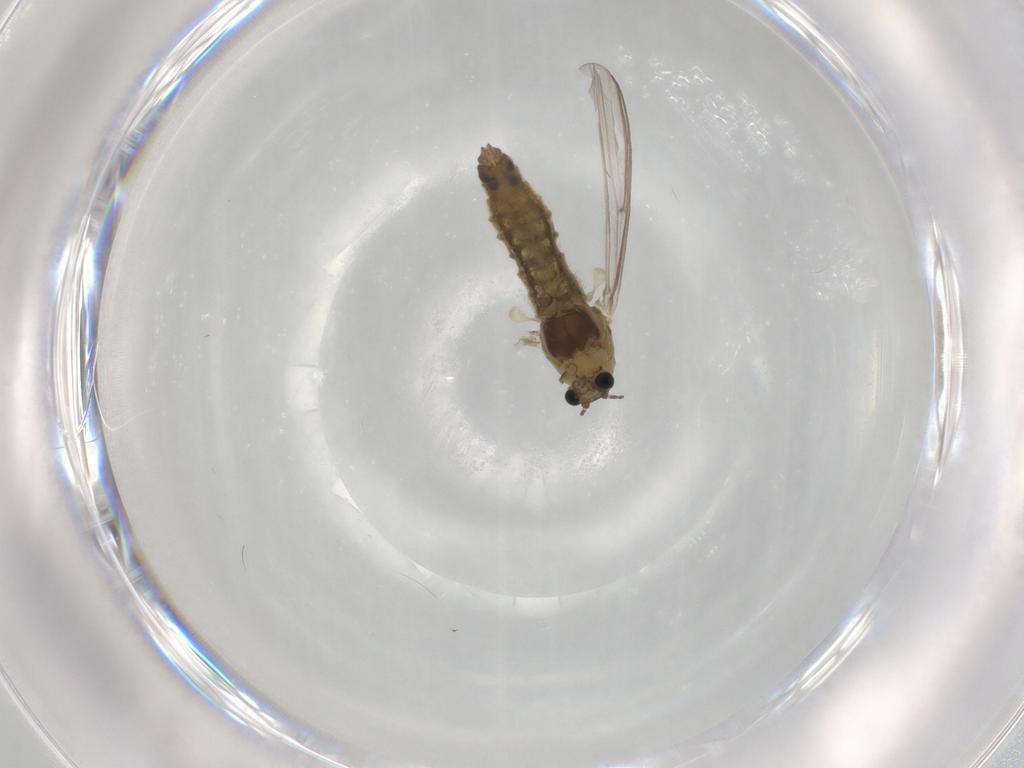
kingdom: Animalia
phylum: Arthropoda
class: Insecta
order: Diptera
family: Chironomidae
